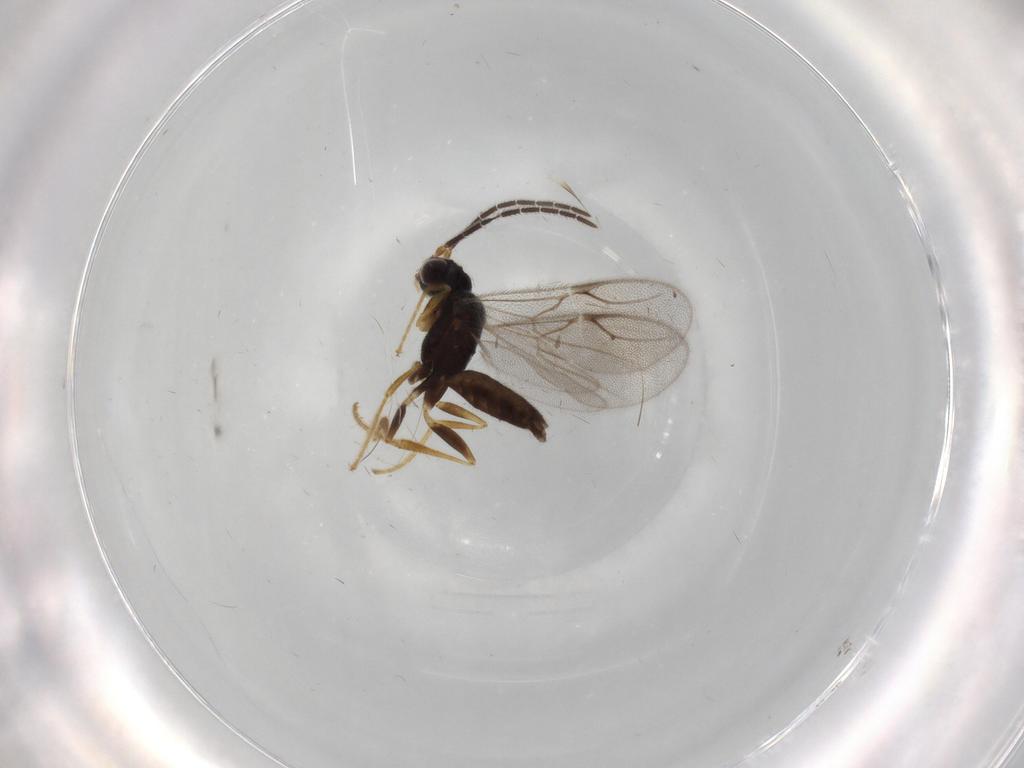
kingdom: Animalia
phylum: Arthropoda
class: Insecta
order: Hymenoptera
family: Dryinidae
